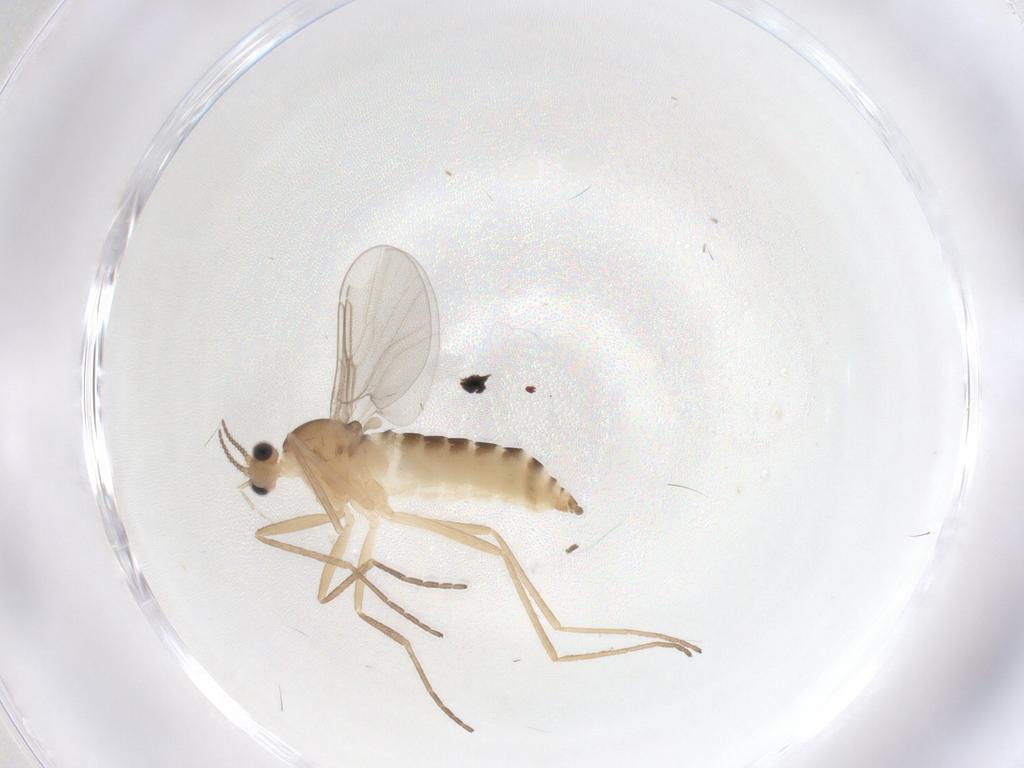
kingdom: Animalia
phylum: Arthropoda
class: Insecta
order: Diptera
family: Cecidomyiidae
